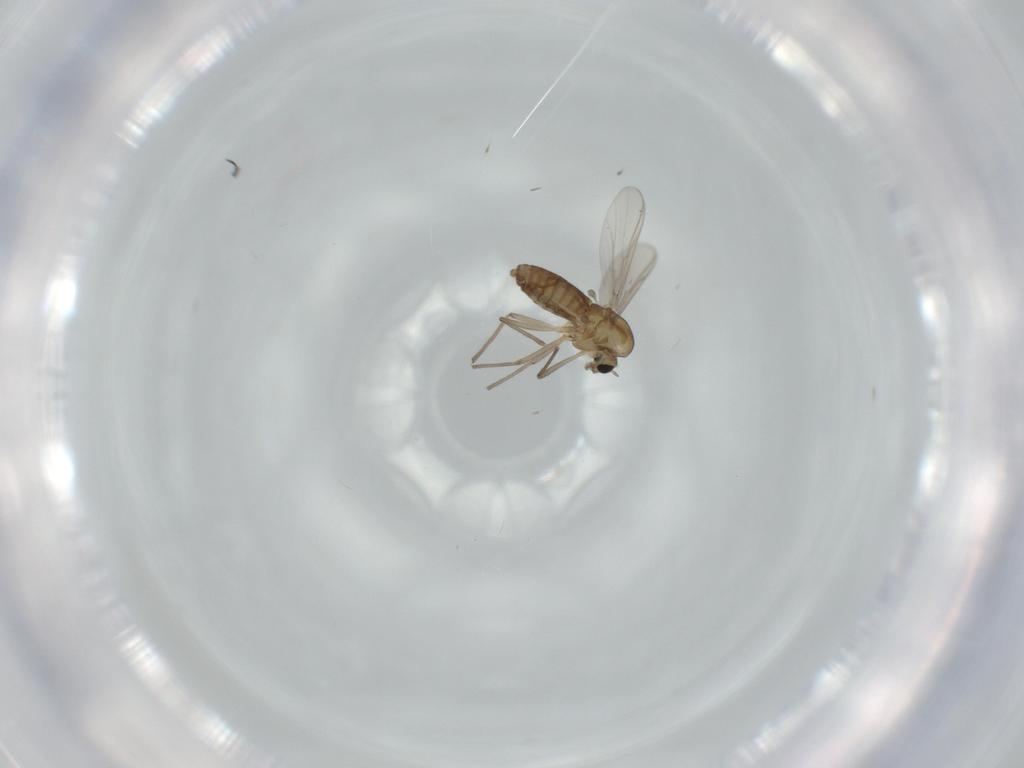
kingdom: Animalia
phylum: Arthropoda
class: Insecta
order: Diptera
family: Chironomidae
